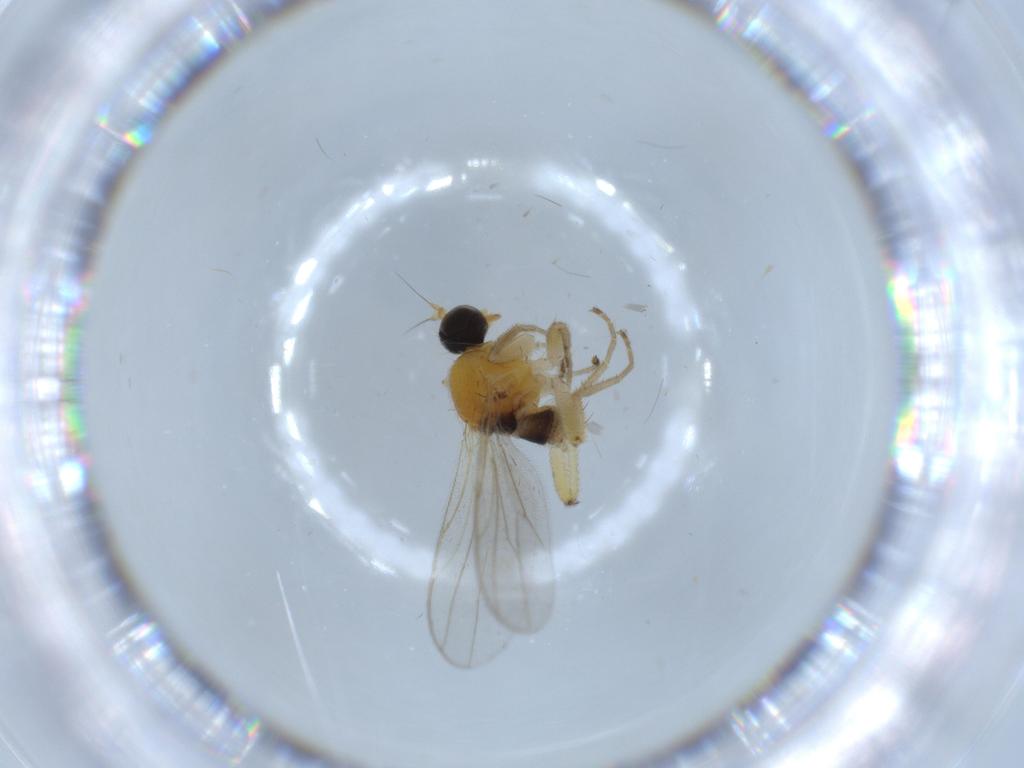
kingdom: Animalia
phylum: Arthropoda
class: Insecta
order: Diptera
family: Hybotidae
